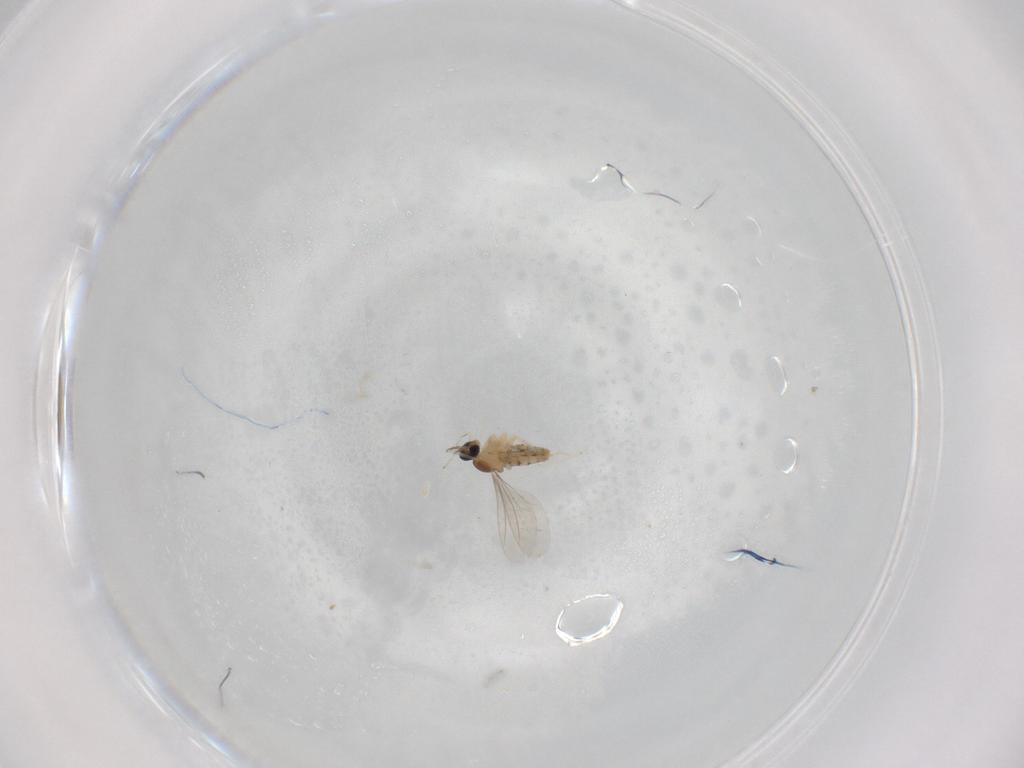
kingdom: Animalia
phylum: Arthropoda
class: Insecta
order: Diptera
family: Cecidomyiidae
